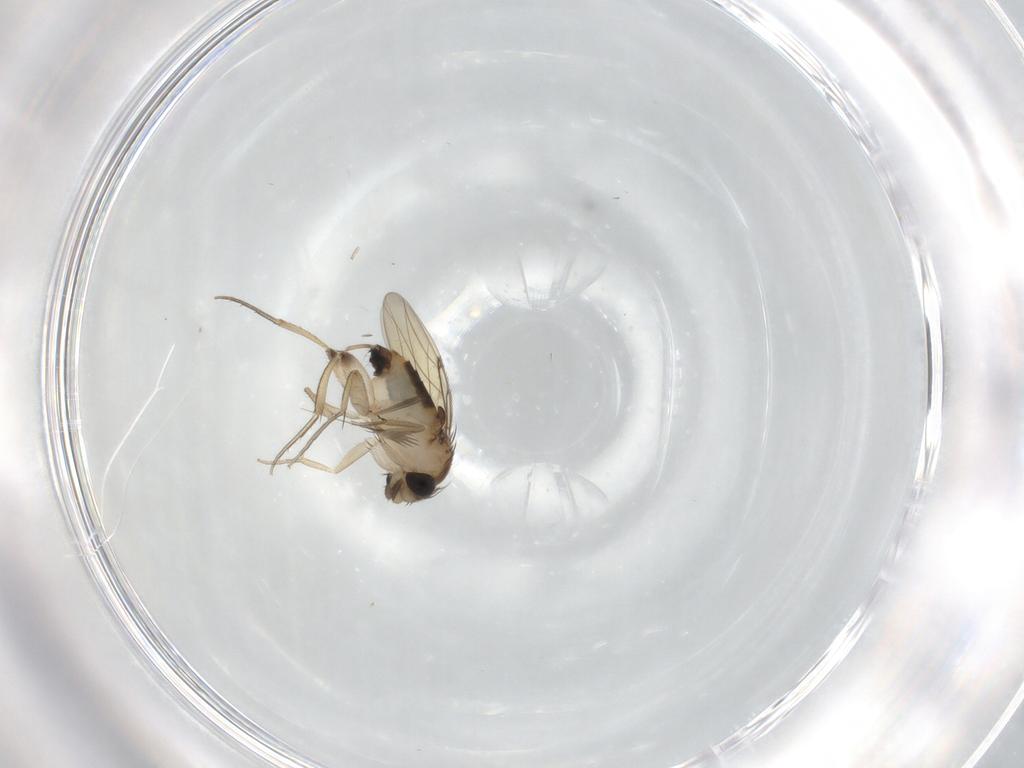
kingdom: Animalia
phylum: Arthropoda
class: Insecta
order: Diptera
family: Phoridae
